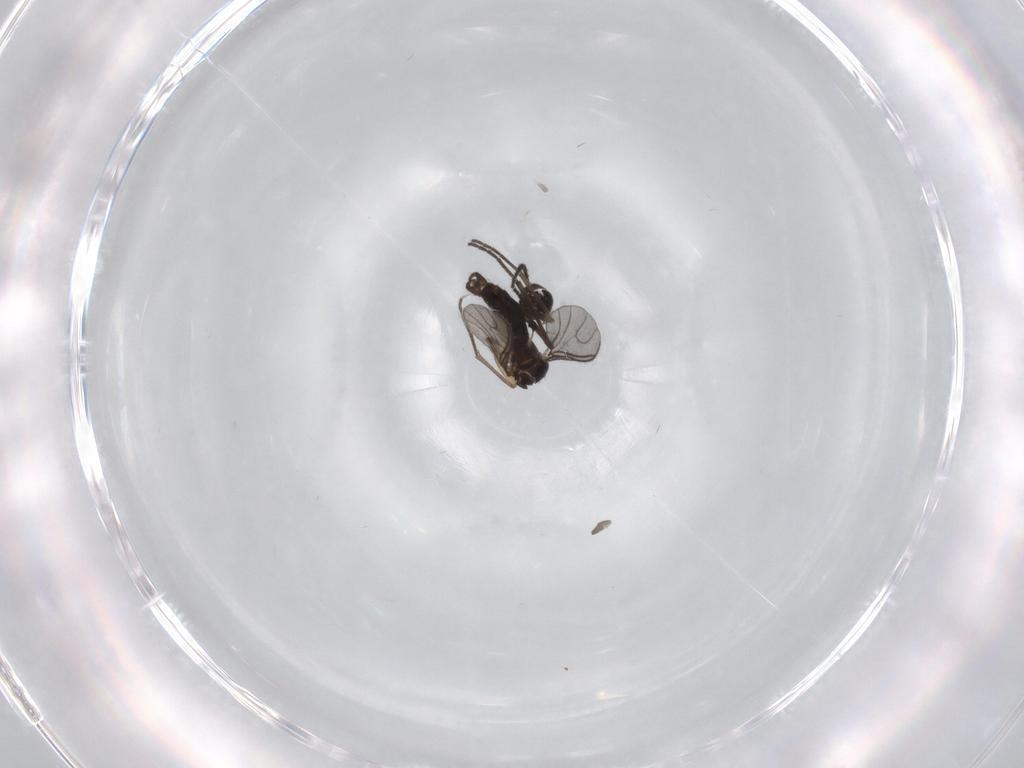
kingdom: Animalia
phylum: Arthropoda
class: Insecta
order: Diptera
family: Sciaridae
